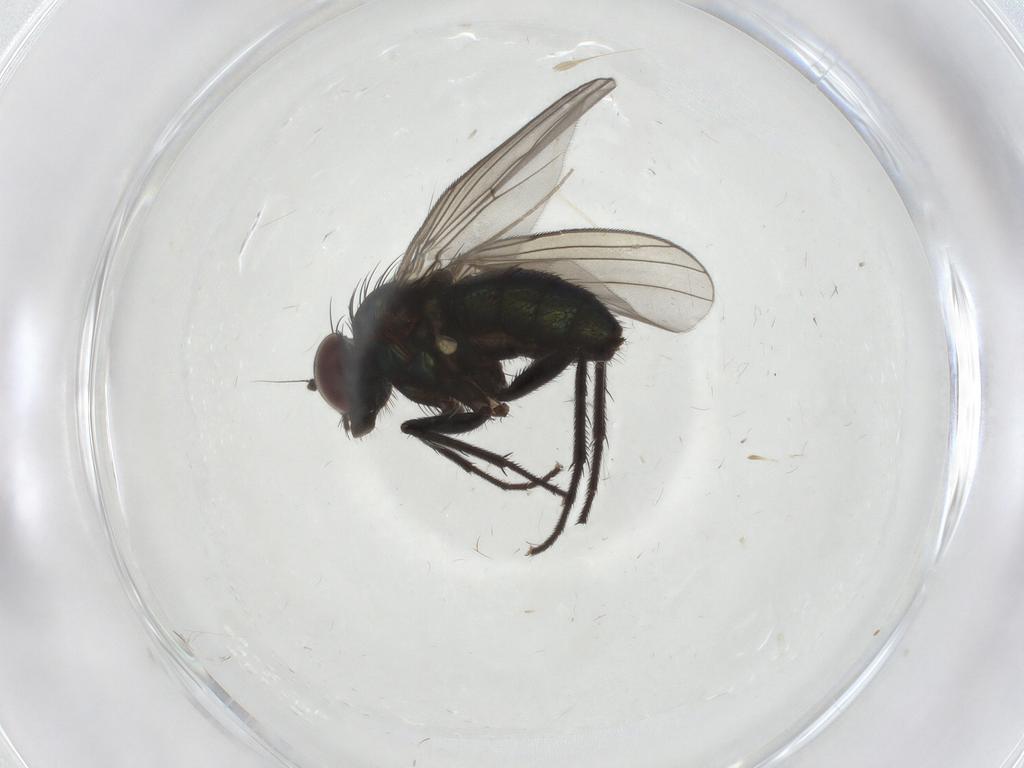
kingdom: Animalia
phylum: Arthropoda
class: Insecta
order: Diptera
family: Dolichopodidae
